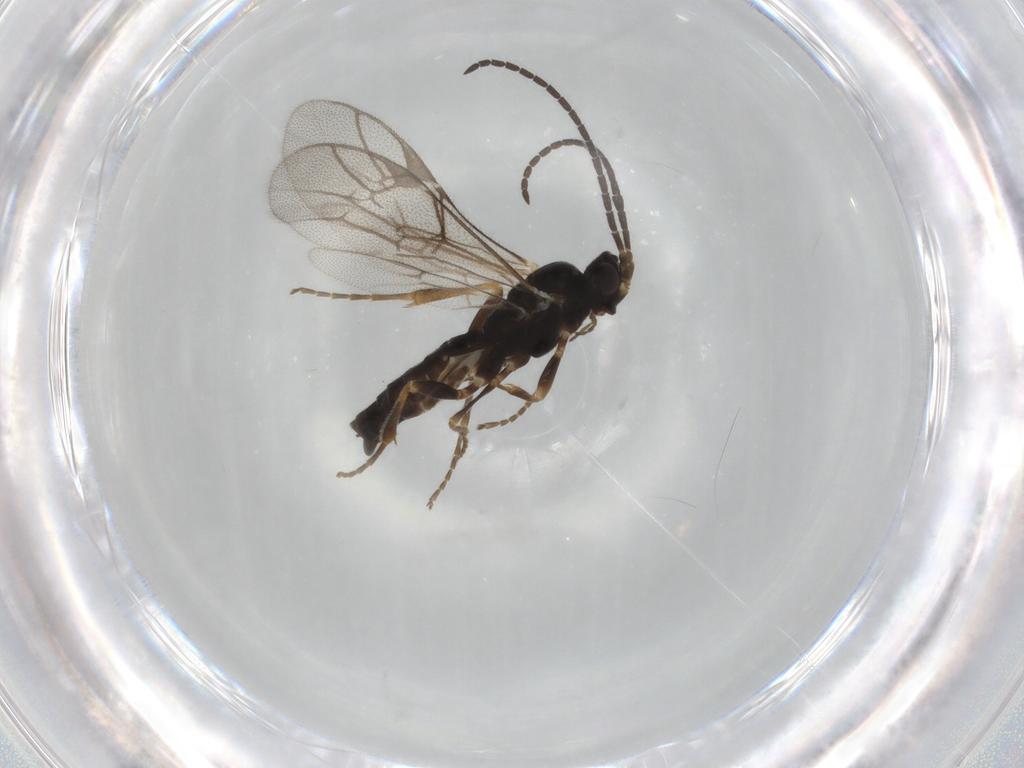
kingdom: Animalia
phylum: Arthropoda
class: Insecta
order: Hymenoptera
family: Ichneumonidae
